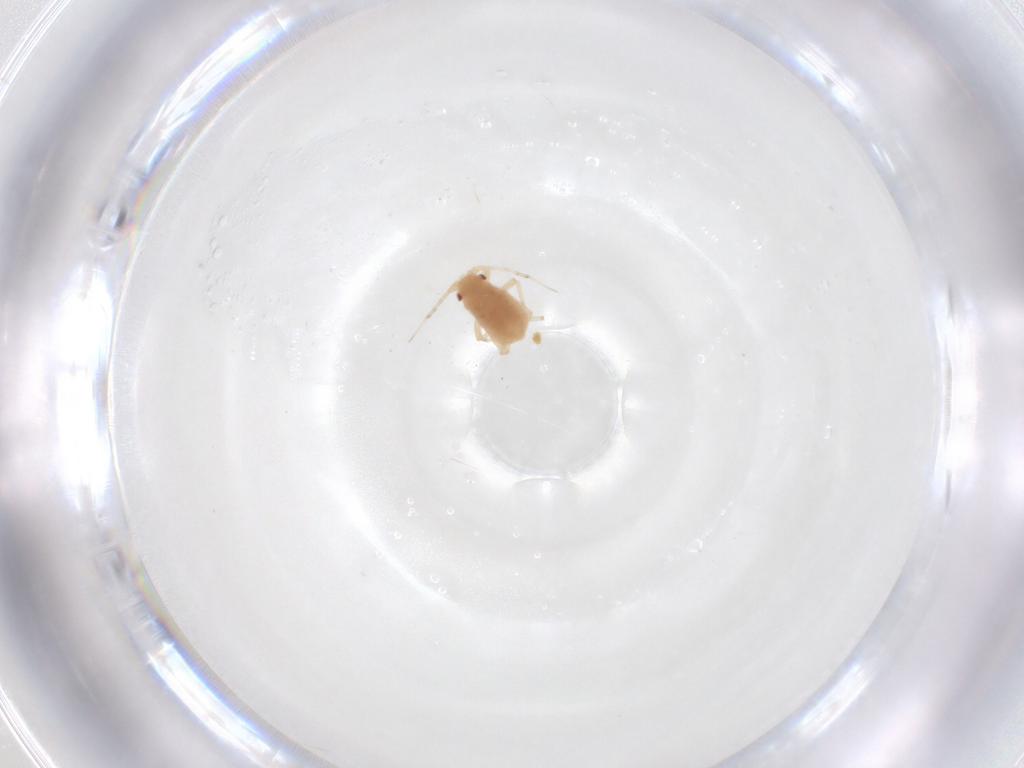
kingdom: Animalia
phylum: Arthropoda
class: Insecta
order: Hemiptera
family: Aphididae
